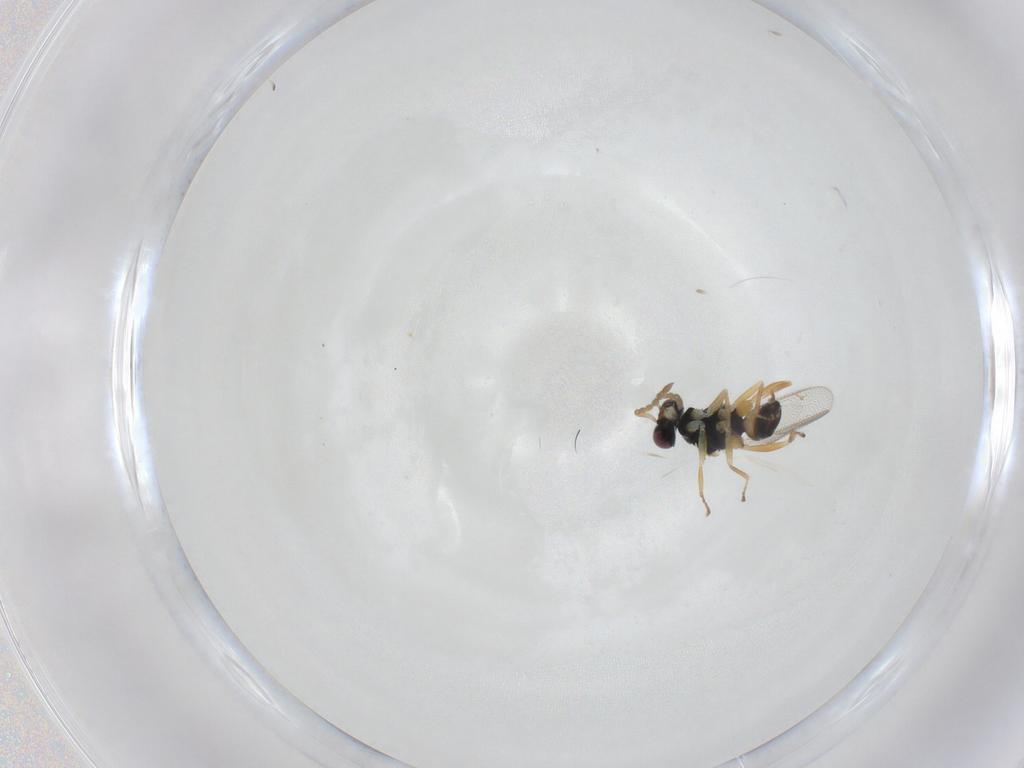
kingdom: Animalia
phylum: Arthropoda
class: Insecta
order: Hymenoptera
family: Eulophidae
